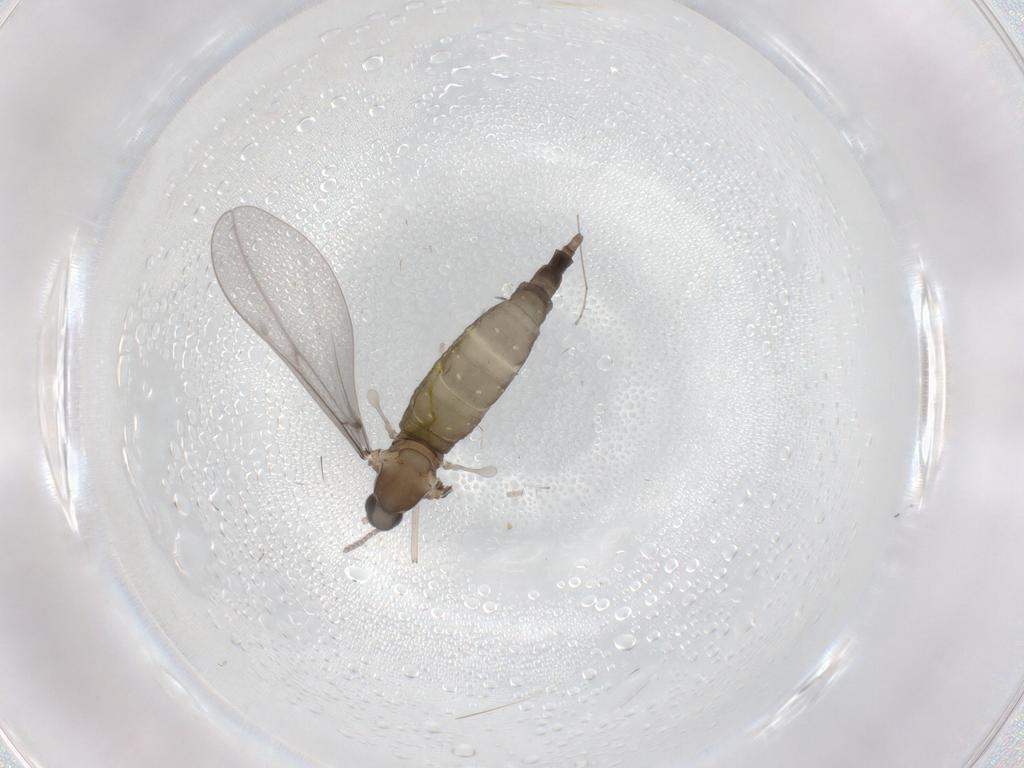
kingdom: Animalia
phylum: Arthropoda
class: Insecta
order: Diptera
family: Cecidomyiidae
